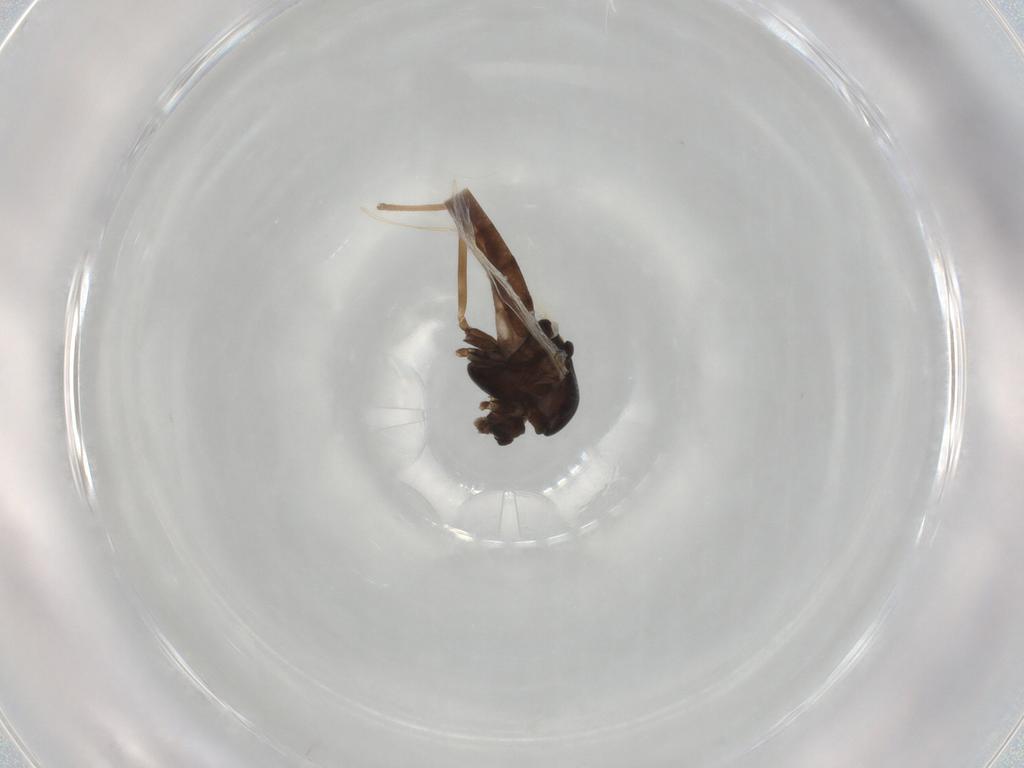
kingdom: Animalia
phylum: Arthropoda
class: Insecta
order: Diptera
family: Chironomidae
